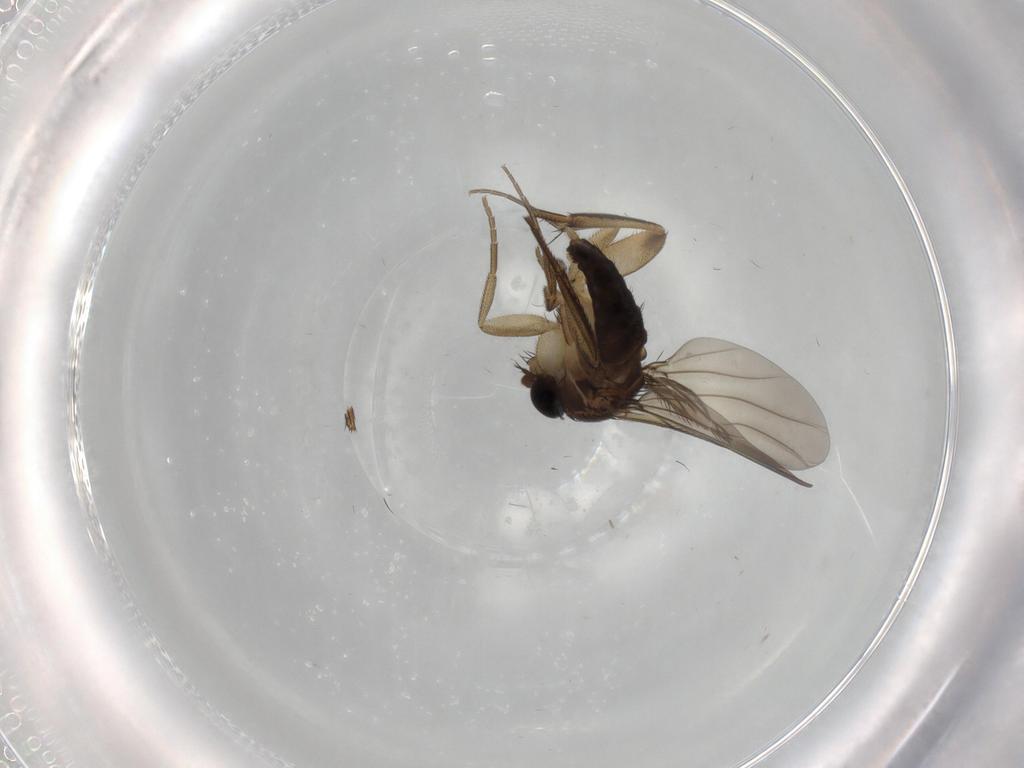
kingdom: Animalia
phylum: Arthropoda
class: Insecta
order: Diptera
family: Phoridae
